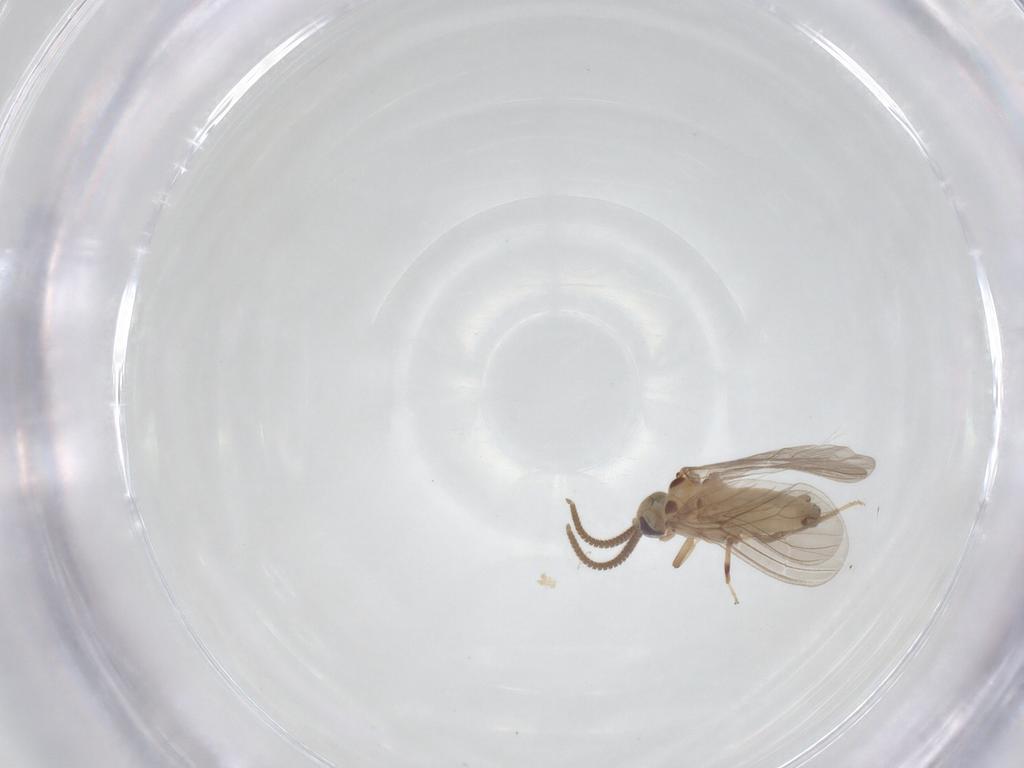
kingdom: Animalia
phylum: Arthropoda
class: Insecta
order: Neuroptera
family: Coniopterygidae
